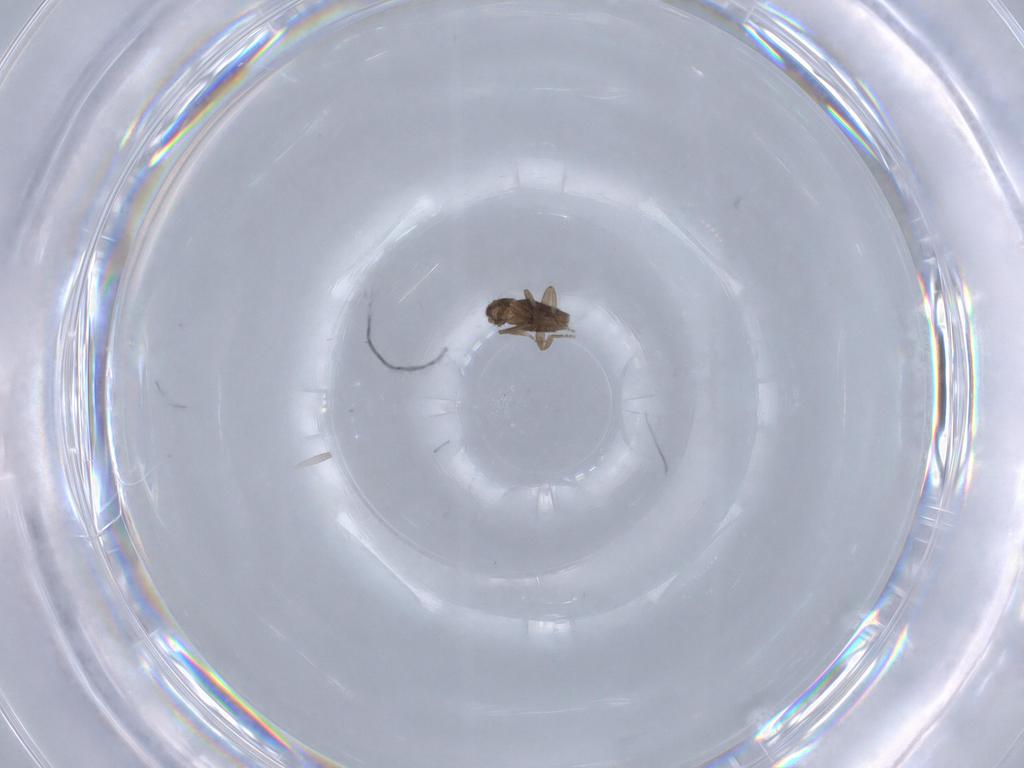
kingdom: Animalia
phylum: Arthropoda
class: Insecta
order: Diptera
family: Phoridae
